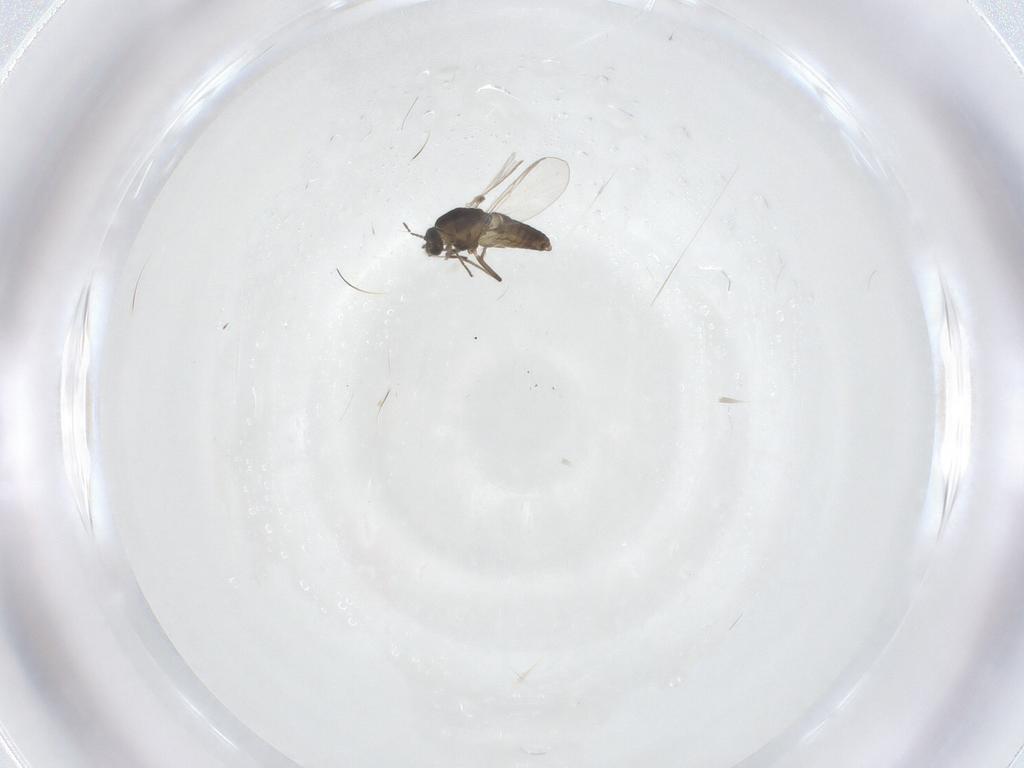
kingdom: Animalia
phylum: Arthropoda
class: Insecta
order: Diptera
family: Chironomidae
